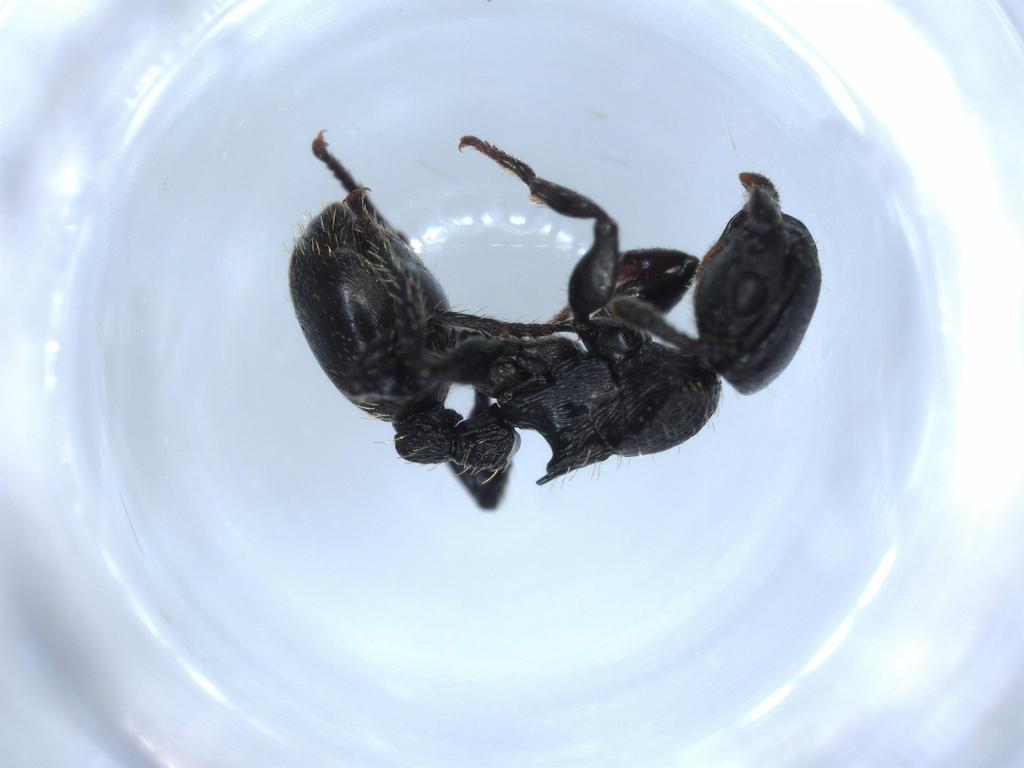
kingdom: Animalia
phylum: Arthropoda
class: Insecta
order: Hymenoptera
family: Formicidae
